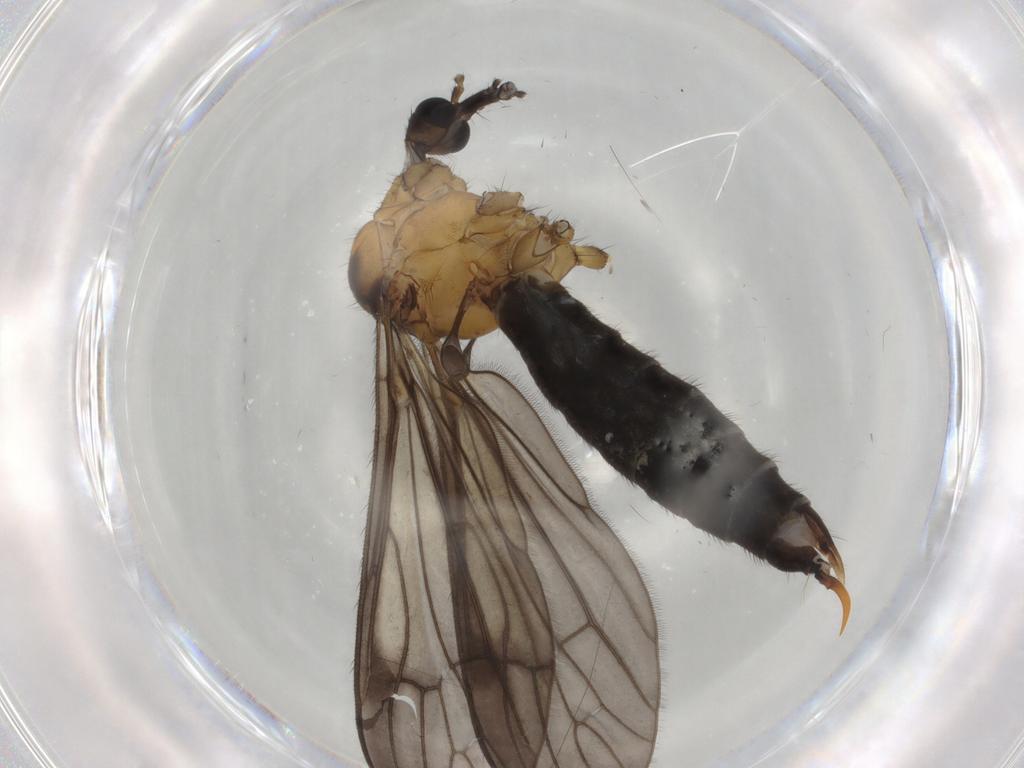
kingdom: Animalia
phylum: Arthropoda
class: Insecta
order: Diptera
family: Limoniidae
